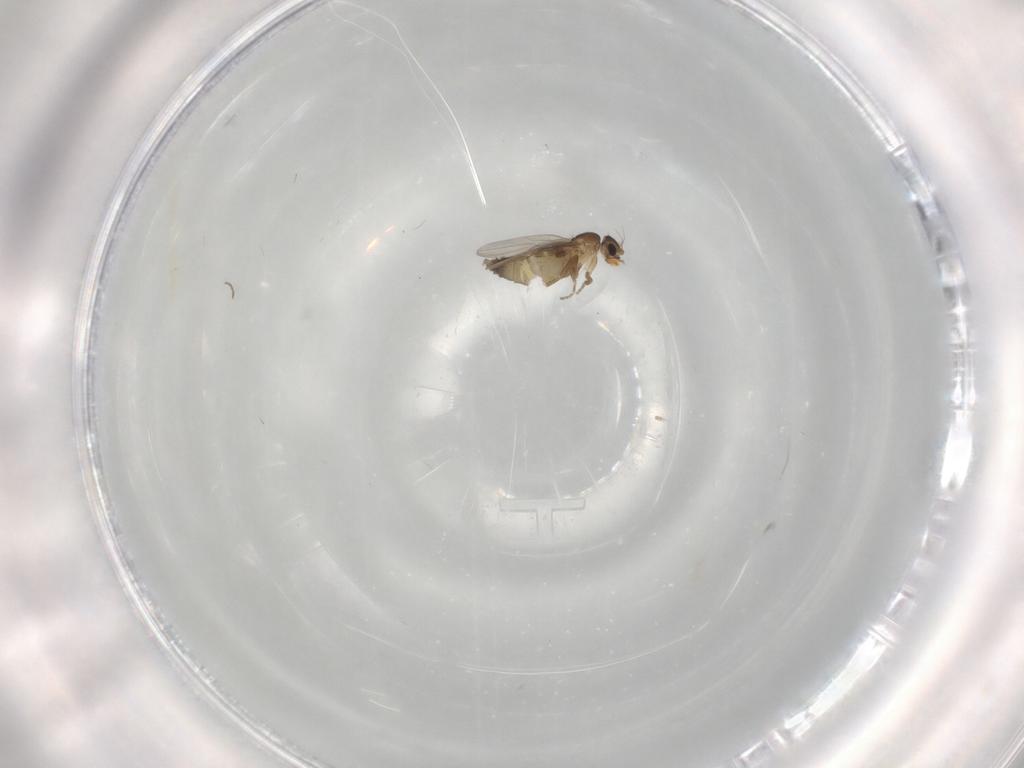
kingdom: Animalia
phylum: Arthropoda
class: Insecta
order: Diptera
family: Phoridae
